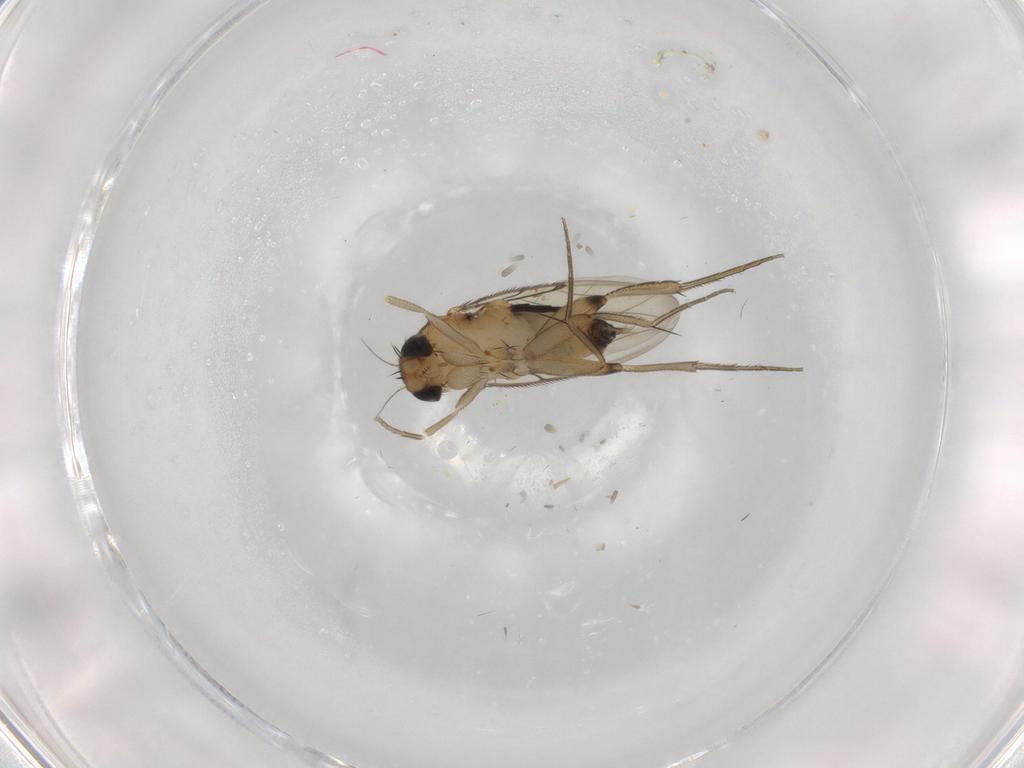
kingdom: Animalia
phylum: Arthropoda
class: Insecta
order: Diptera
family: Phoridae
